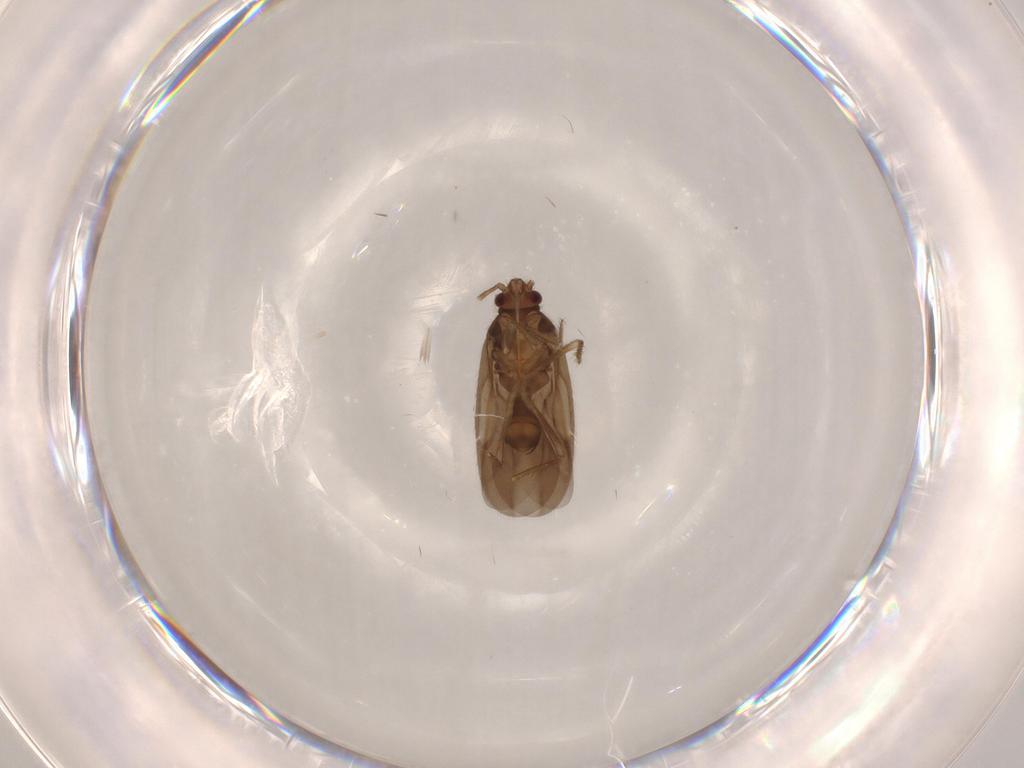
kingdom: Animalia
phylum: Arthropoda
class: Insecta
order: Hemiptera
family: Ceratocombidae
